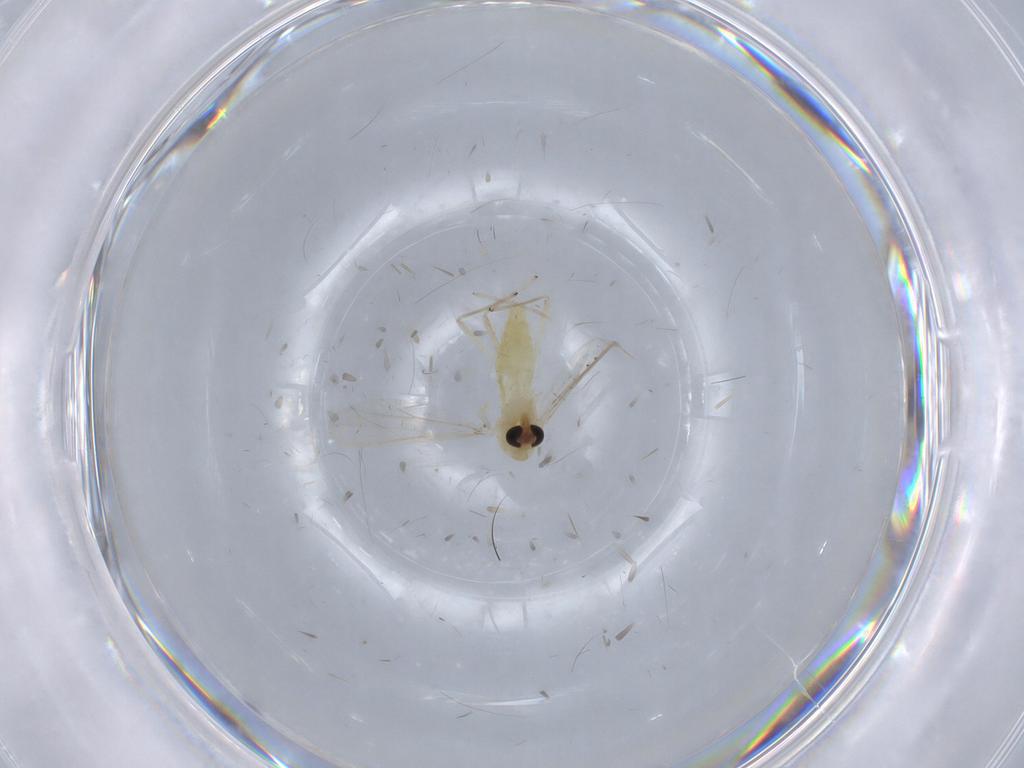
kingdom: Animalia
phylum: Arthropoda
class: Insecta
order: Diptera
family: Chironomidae
